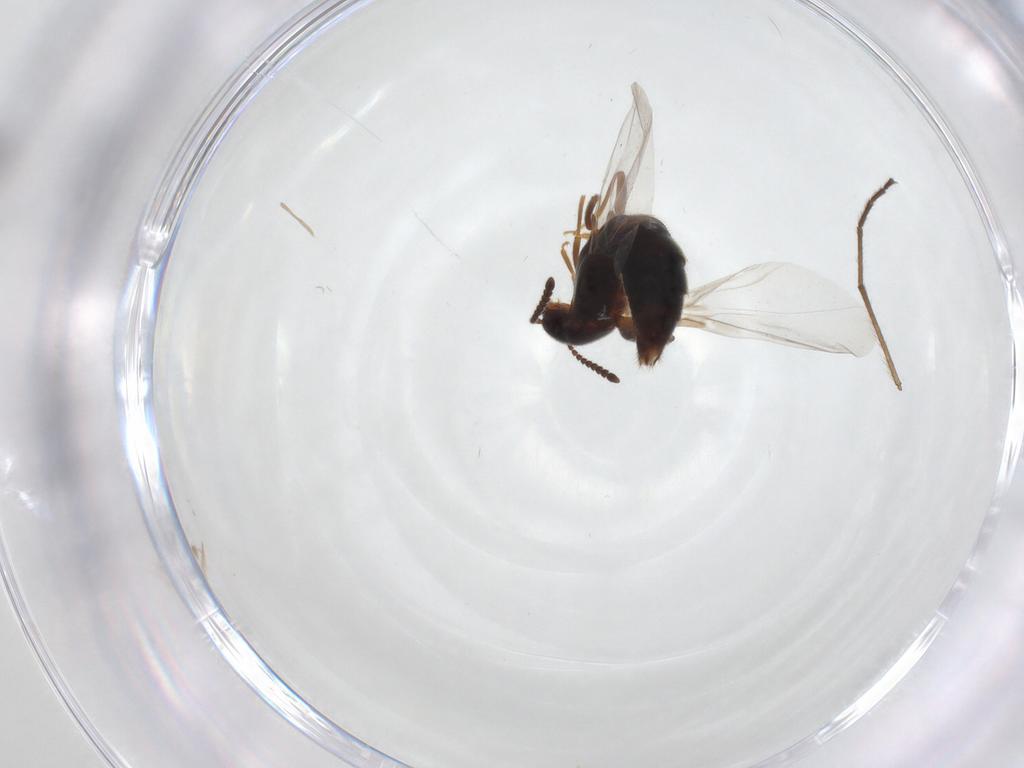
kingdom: Animalia
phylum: Arthropoda
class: Insecta
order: Coleoptera
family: Staphylinidae
